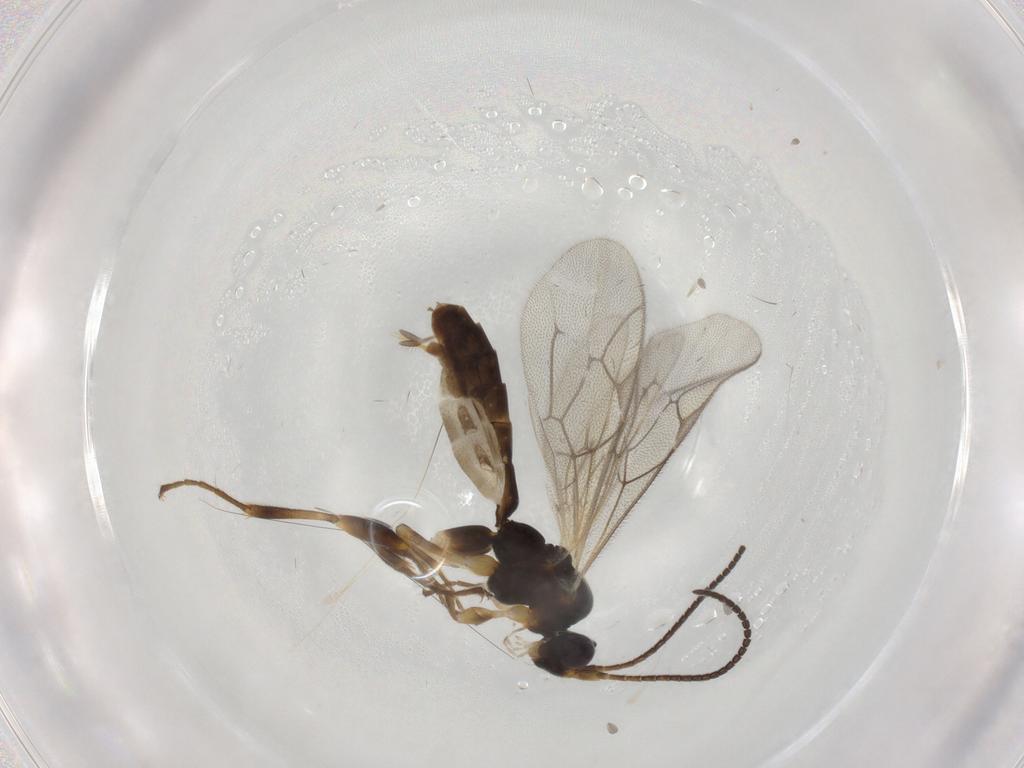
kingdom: Animalia
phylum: Arthropoda
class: Insecta
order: Hymenoptera
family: Ichneumonidae
